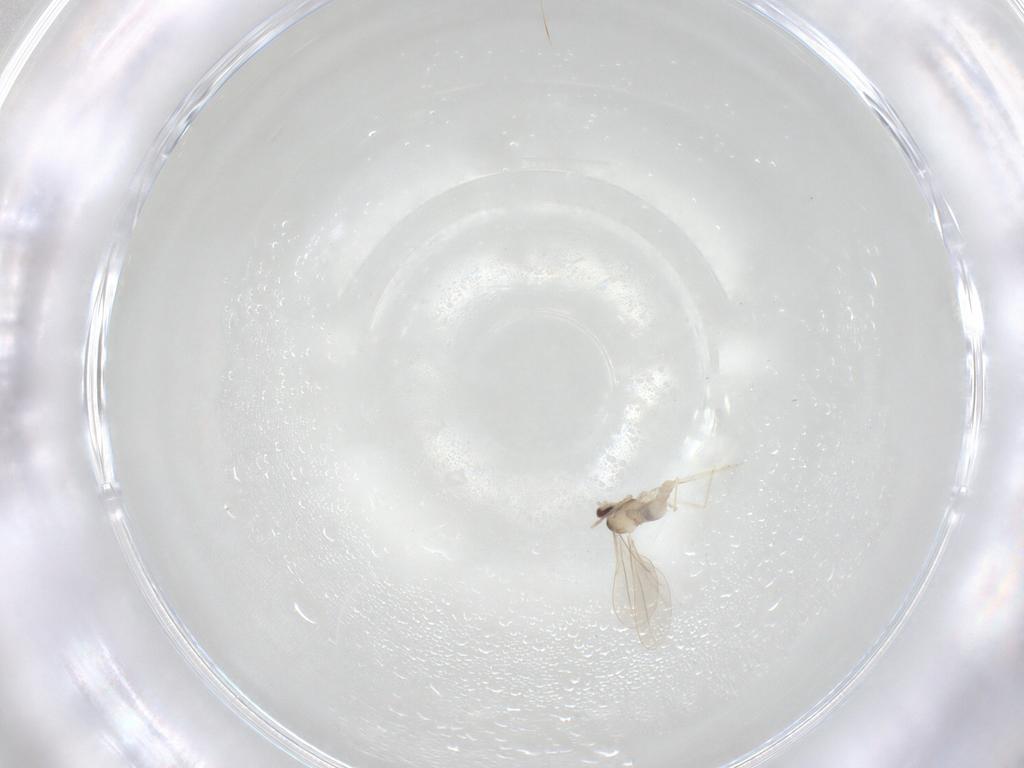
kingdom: Animalia
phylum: Arthropoda
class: Insecta
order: Diptera
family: Cecidomyiidae
